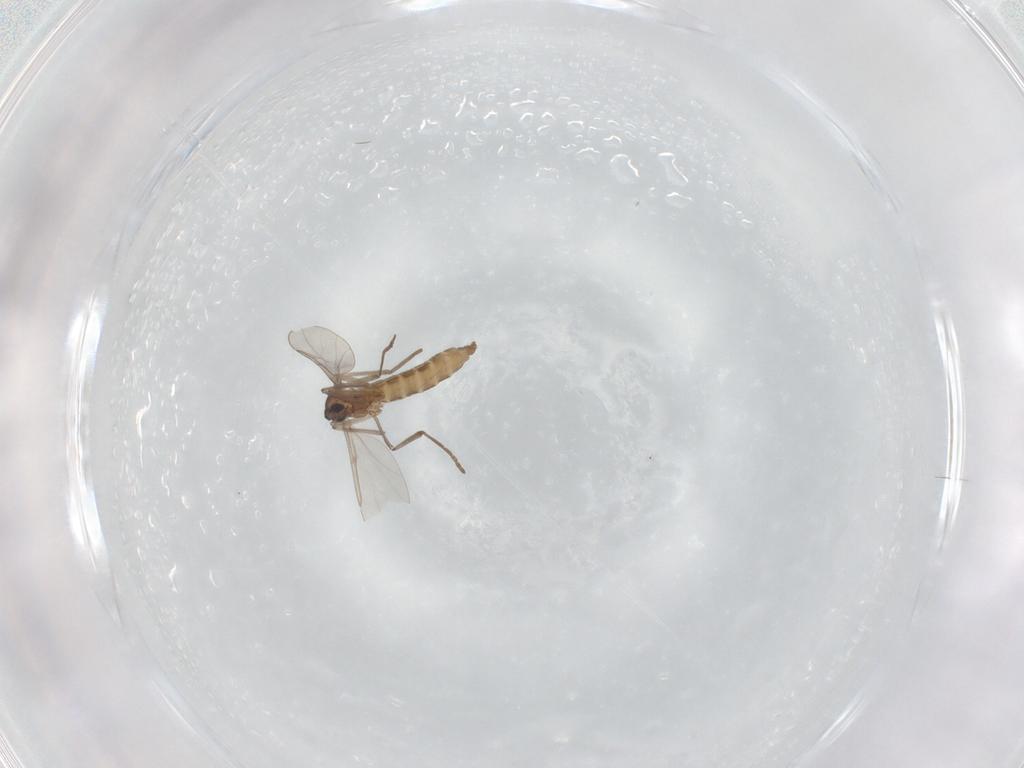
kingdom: Animalia
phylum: Arthropoda
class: Insecta
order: Diptera
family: Cecidomyiidae
